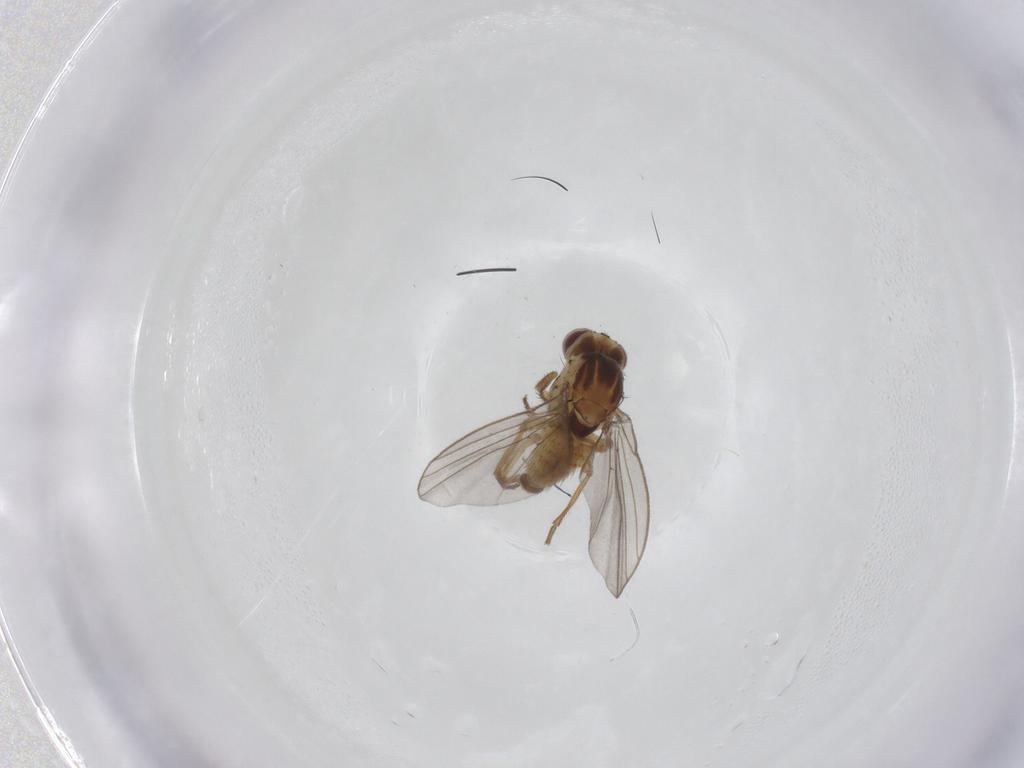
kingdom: Animalia
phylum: Arthropoda
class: Insecta
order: Diptera
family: Agromyzidae
